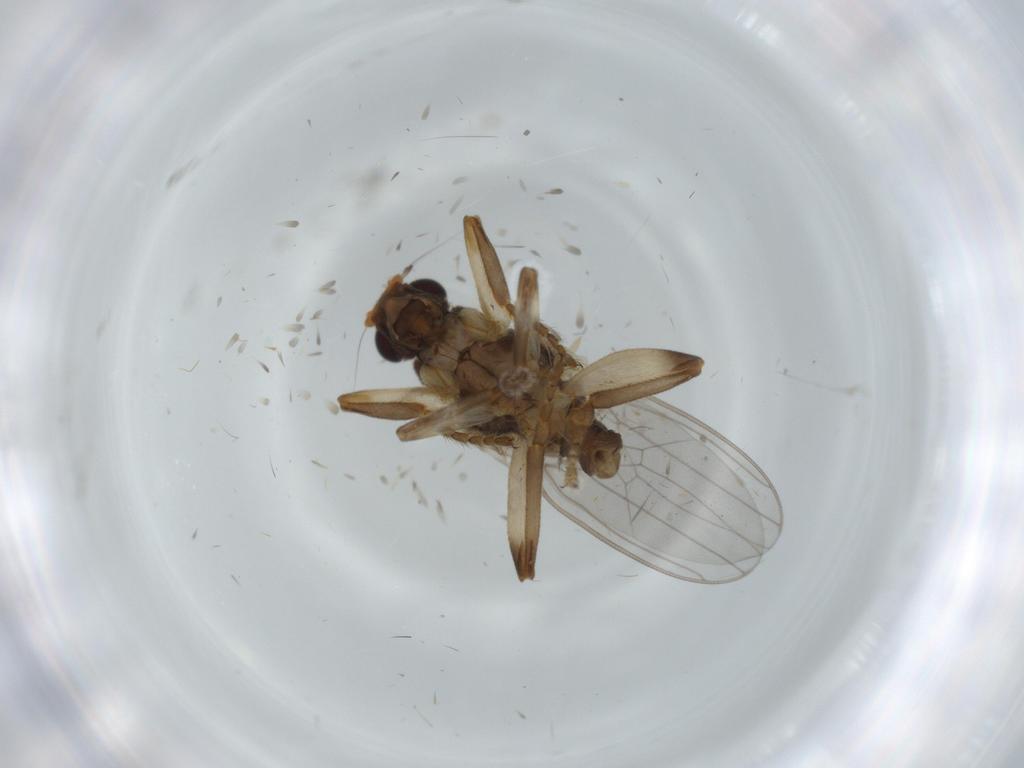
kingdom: Animalia
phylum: Arthropoda
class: Insecta
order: Diptera
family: Sphaeroceridae
